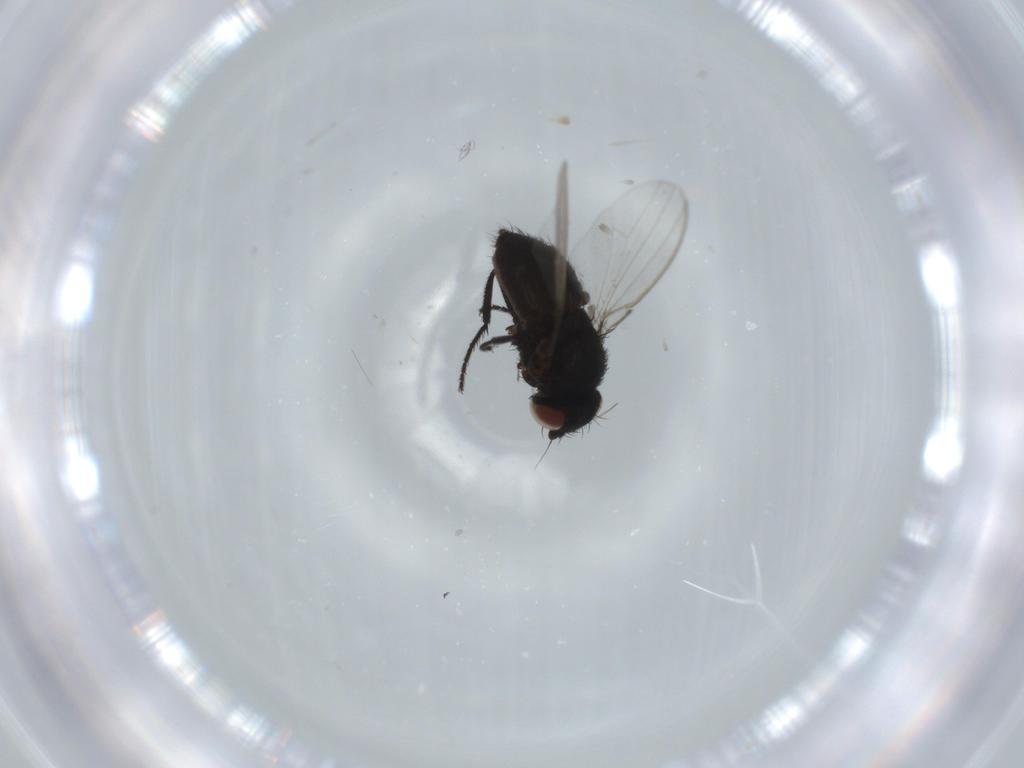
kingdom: Animalia
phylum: Arthropoda
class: Insecta
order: Diptera
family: Ceratopogonidae
